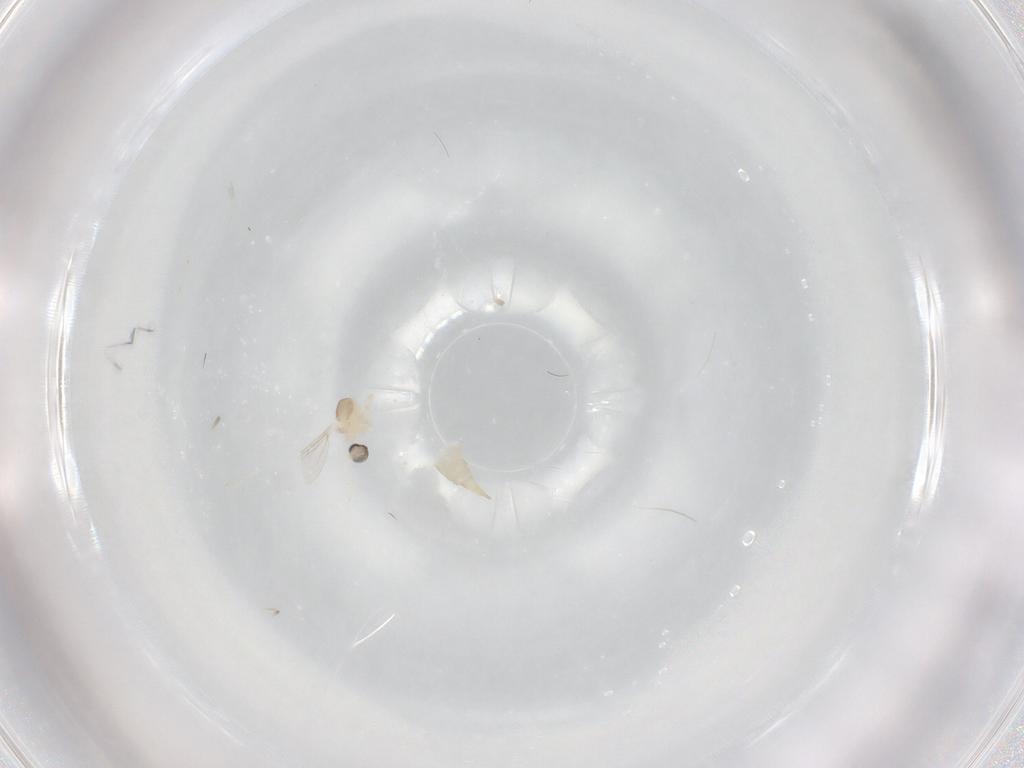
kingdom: Animalia
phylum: Arthropoda
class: Insecta
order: Diptera
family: Cecidomyiidae
